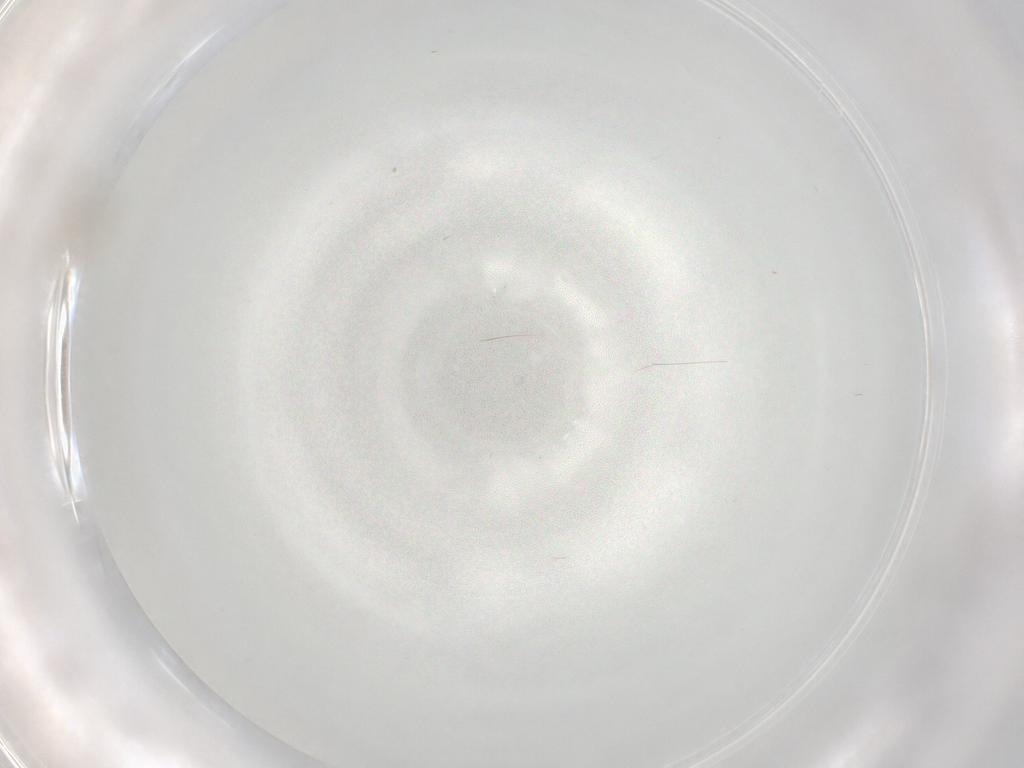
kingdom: Animalia
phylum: Arthropoda
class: Insecta
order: Diptera
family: Cecidomyiidae
